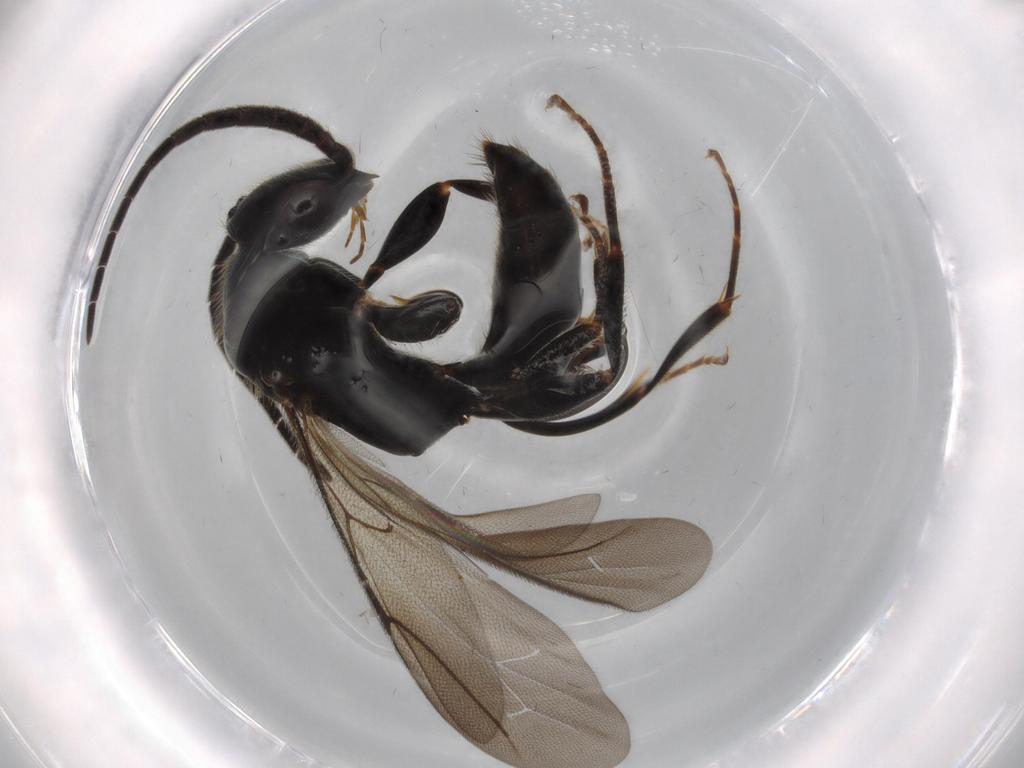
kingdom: Animalia
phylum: Arthropoda
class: Insecta
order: Hymenoptera
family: Bethylidae
